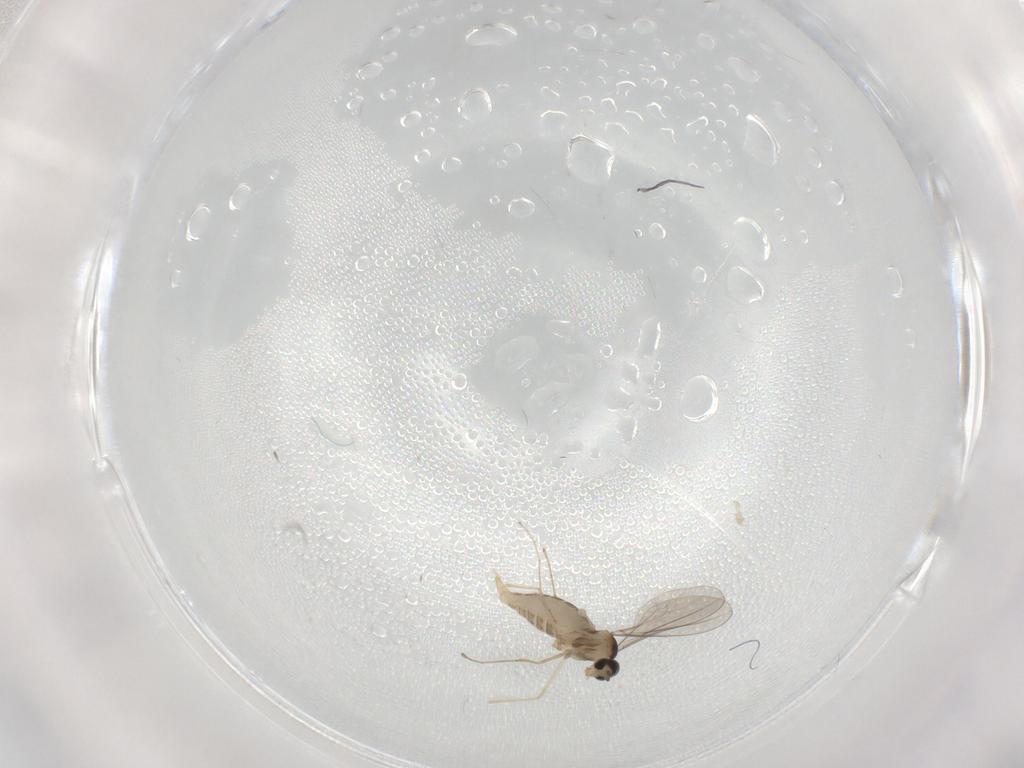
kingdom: Animalia
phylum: Arthropoda
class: Insecta
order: Diptera
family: Cecidomyiidae
